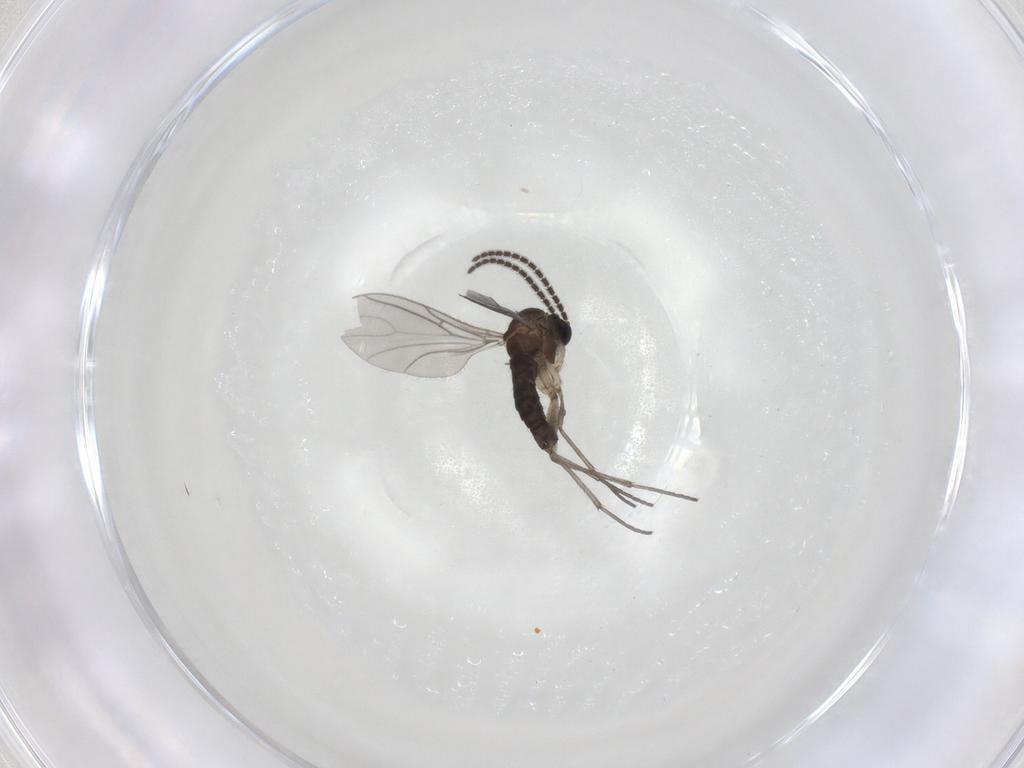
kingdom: Animalia
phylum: Arthropoda
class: Insecta
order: Diptera
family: Sciaridae
